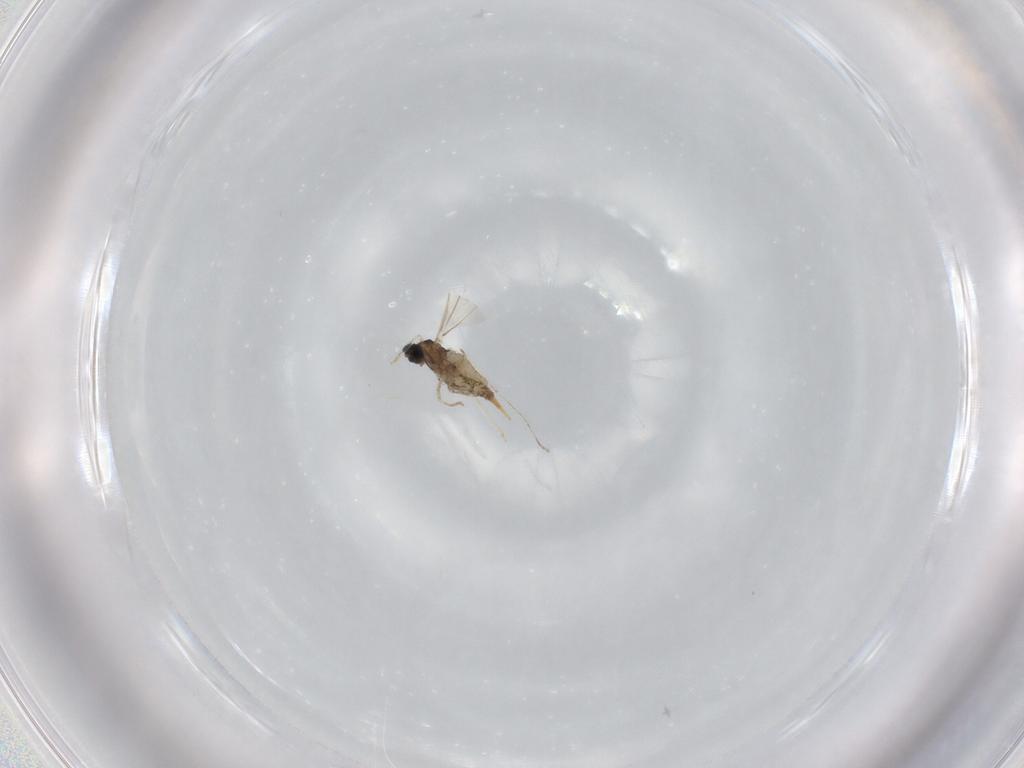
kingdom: Animalia
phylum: Arthropoda
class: Insecta
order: Diptera
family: Cecidomyiidae
